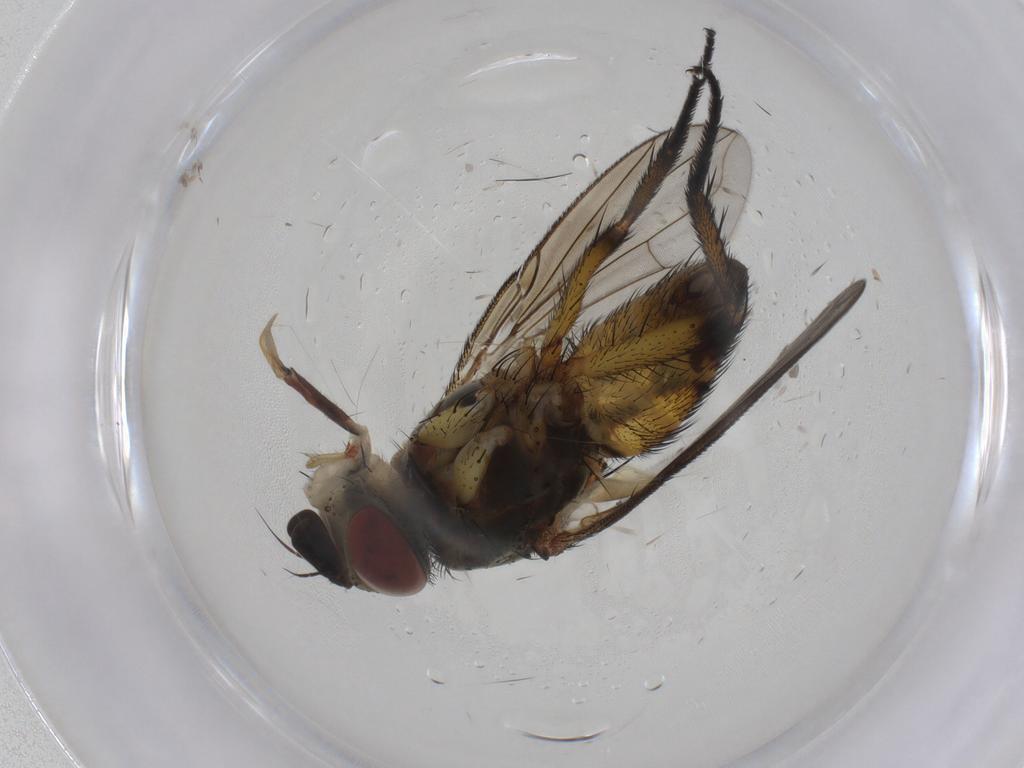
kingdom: Animalia
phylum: Arthropoda
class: Insecta
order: Diptera
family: Tachinidae
